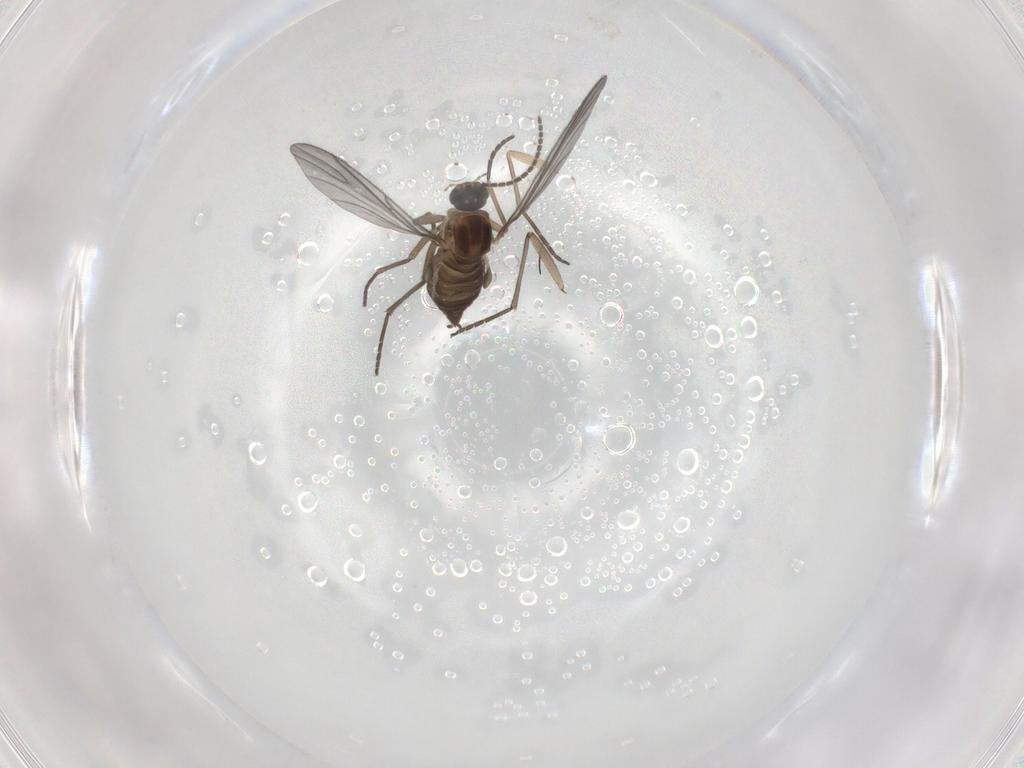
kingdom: Animalia
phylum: Arthropoda
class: Insecta
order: Diptera
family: Sciaridae
